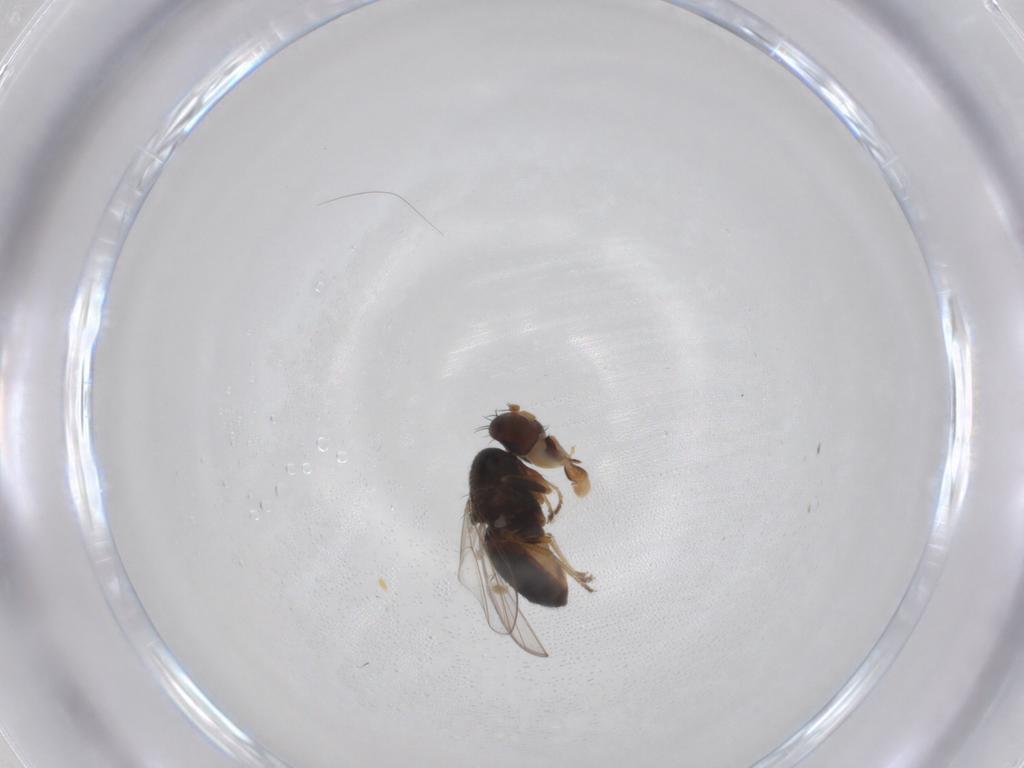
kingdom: Animalia
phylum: Arthropoda
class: Insecta
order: Diptera
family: Ephydridae
